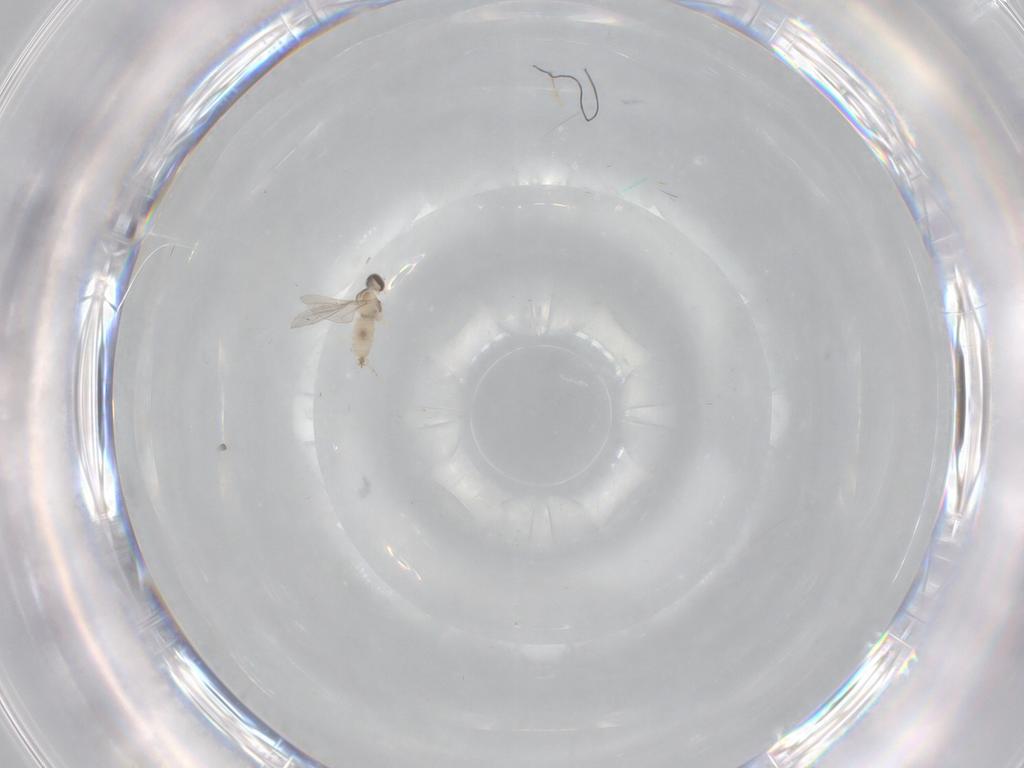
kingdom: Animalia
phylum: Arthropoda
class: Insecta
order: Diptera
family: Cecidomyiidae
